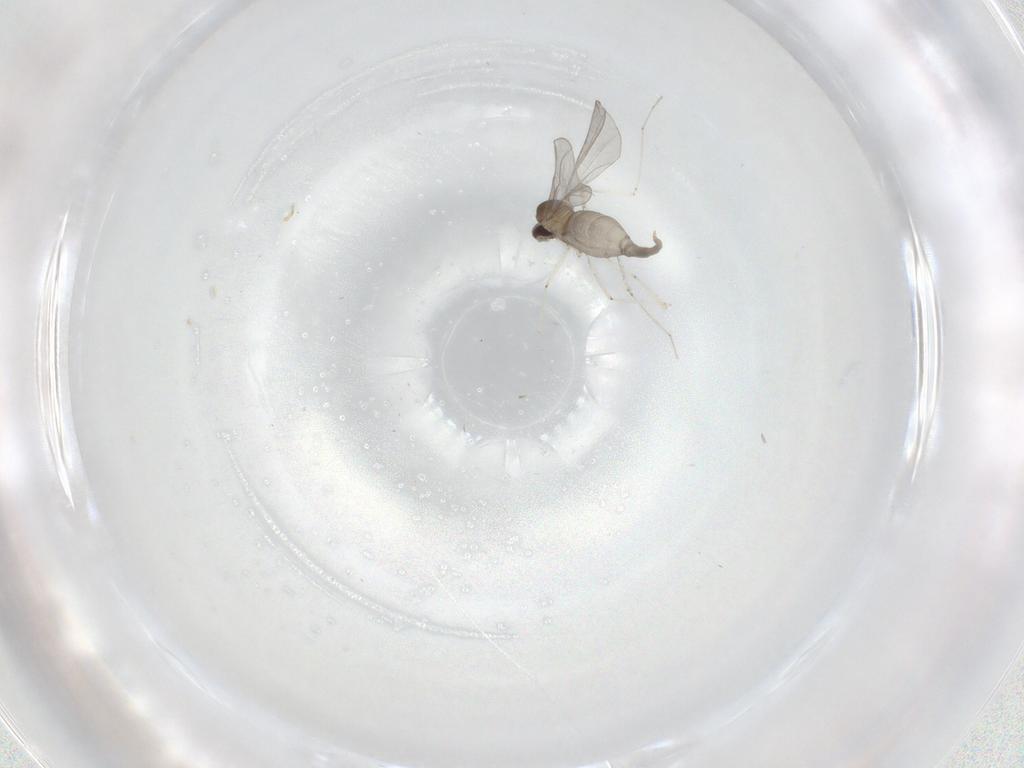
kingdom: Animalia
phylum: Arthropoda
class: Insecta
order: Diptera
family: Cecidomyiidae
